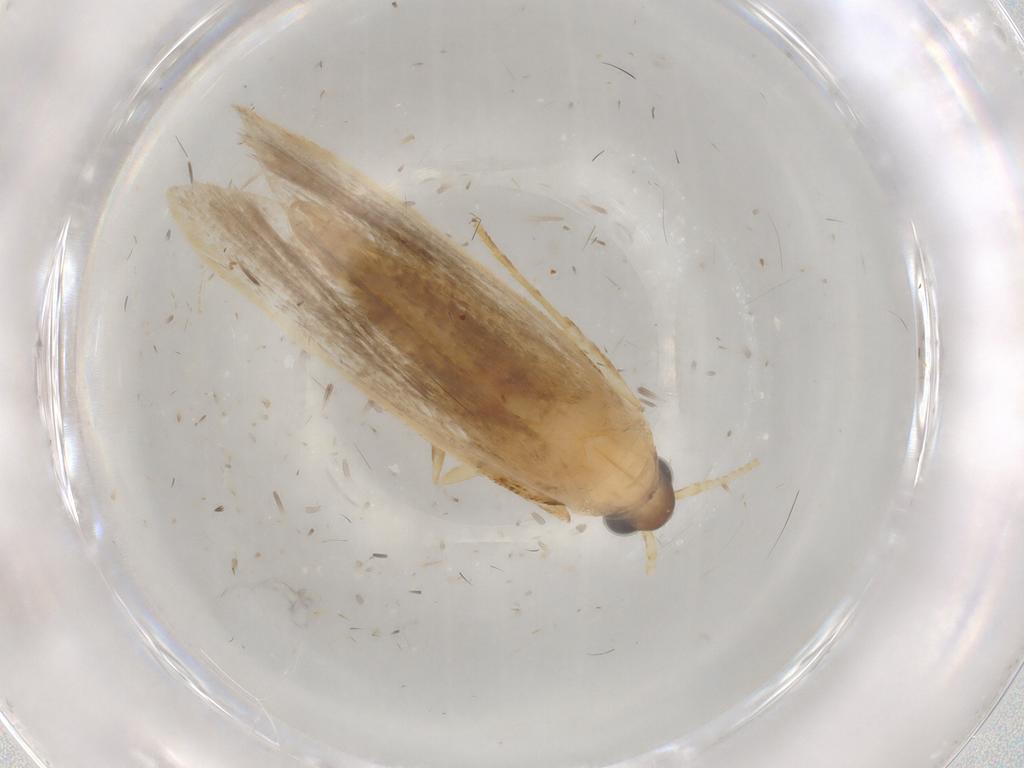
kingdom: Animalia
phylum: Arthropoda
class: Insecta
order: Lepidoptera
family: Lecithoceridae
